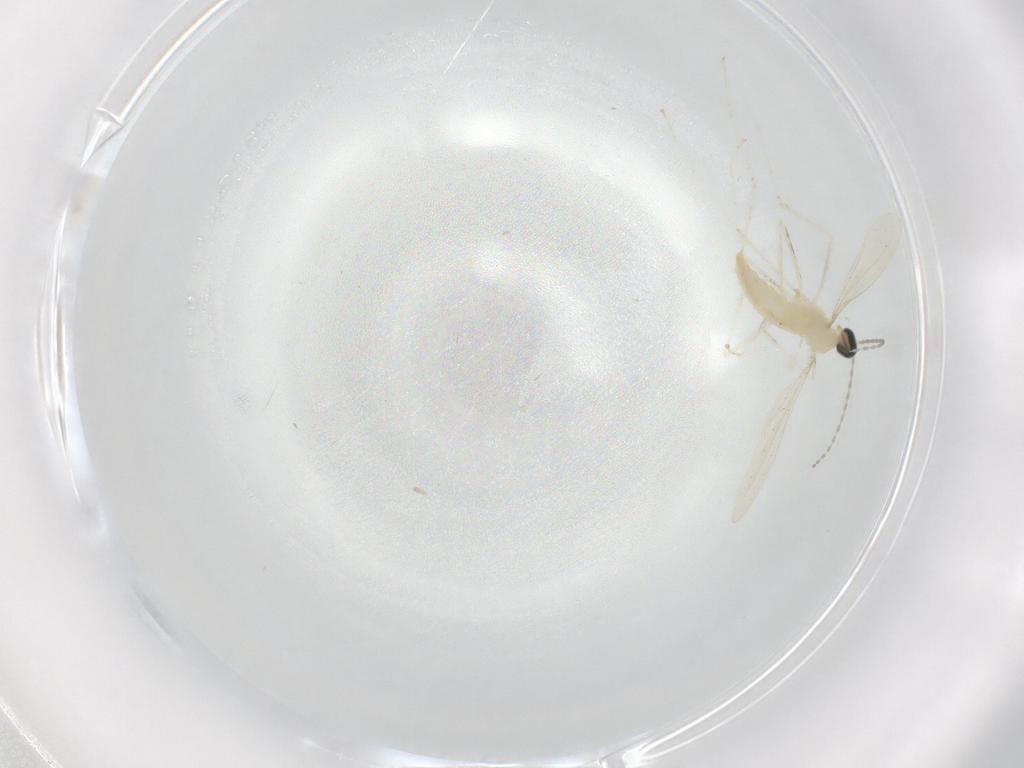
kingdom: Animalia
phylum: Arthropoda
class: Insecta
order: Diptera
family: Cecidomyiidae
